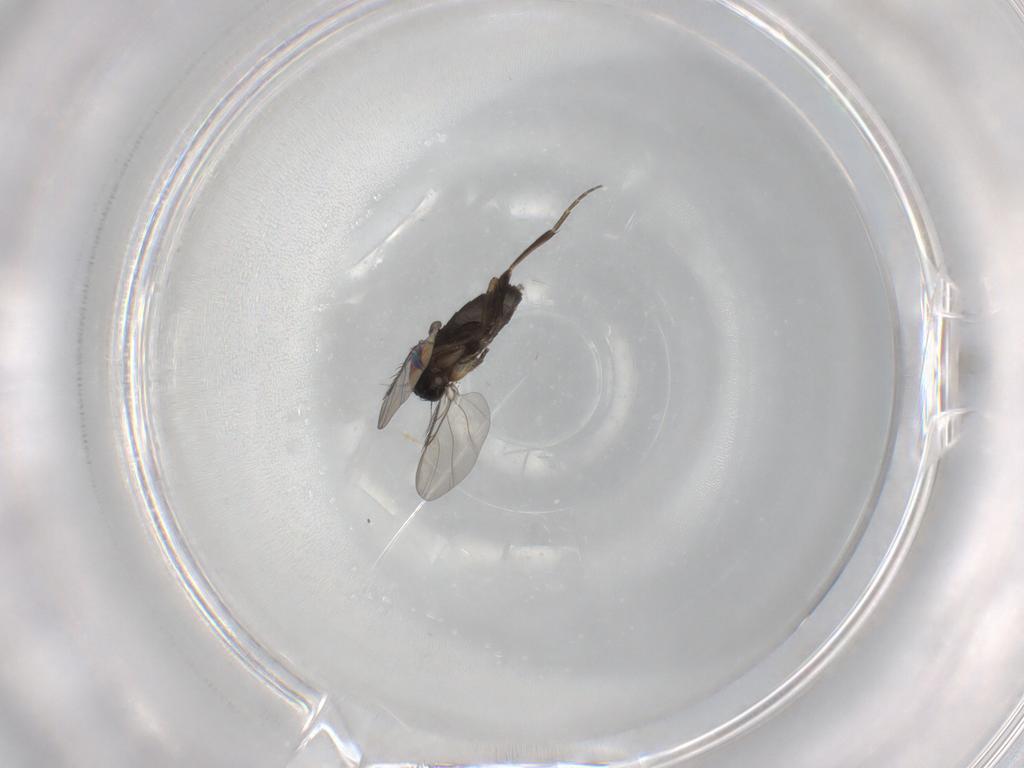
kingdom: Animalia
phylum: Arthropoda
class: Insecta
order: Diptera
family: Phoridae
